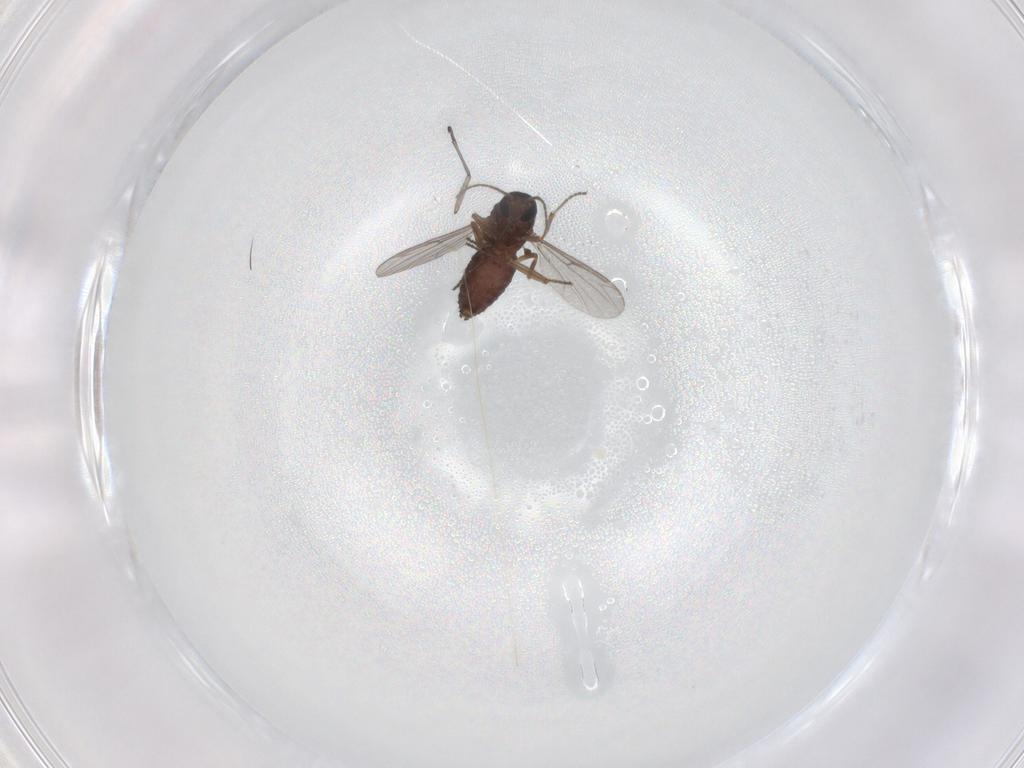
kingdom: Animalia
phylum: Arthropoda
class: Insecta
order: Diptera
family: Ceratopogonidae
